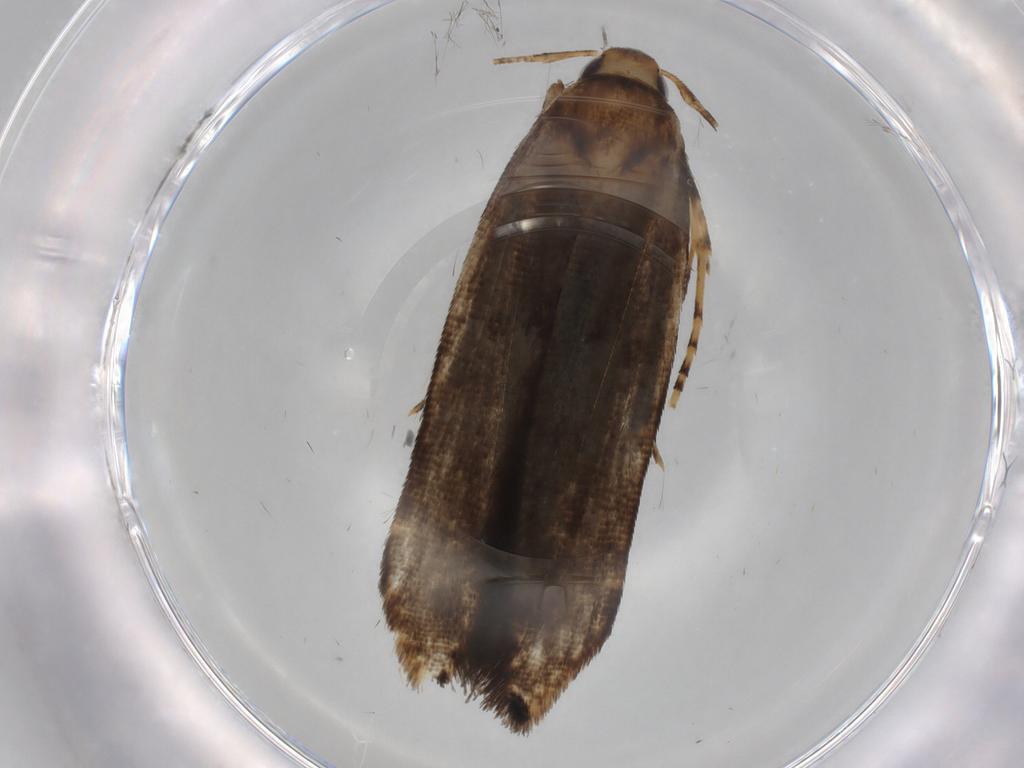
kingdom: Animalia
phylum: Arthropoda
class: Insecta
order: Lepidoptera
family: Cosmopterigidae
